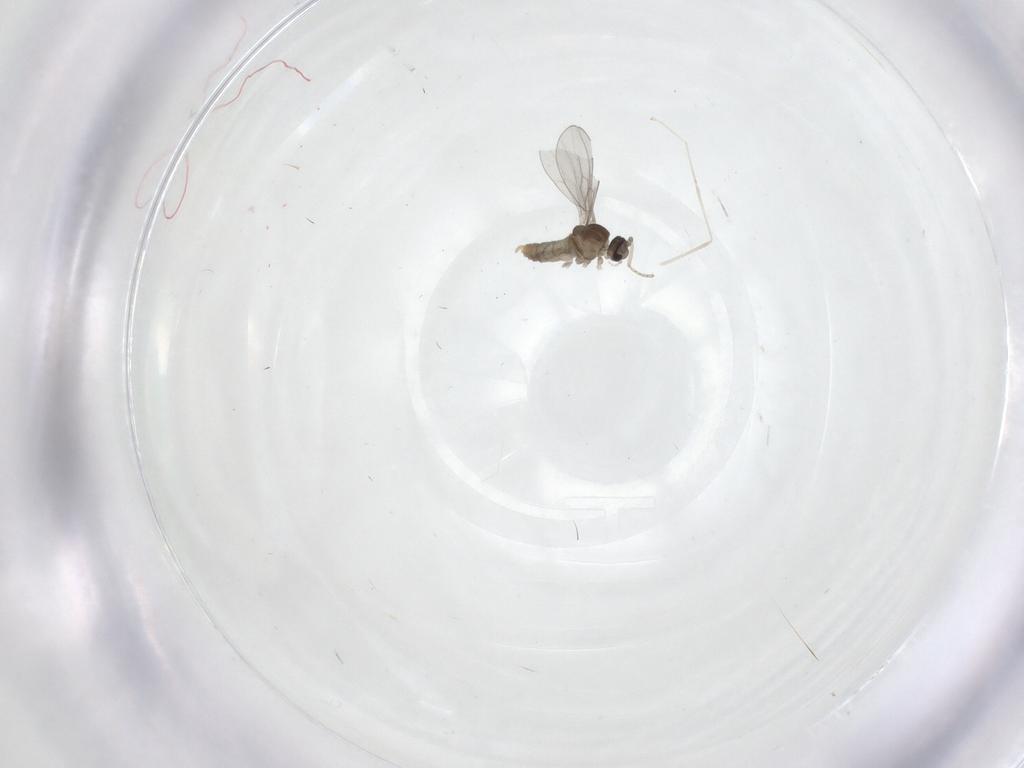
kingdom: Animalia
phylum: Arthropoda
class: Insecta
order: Diptera
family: Cecidomyiidae
